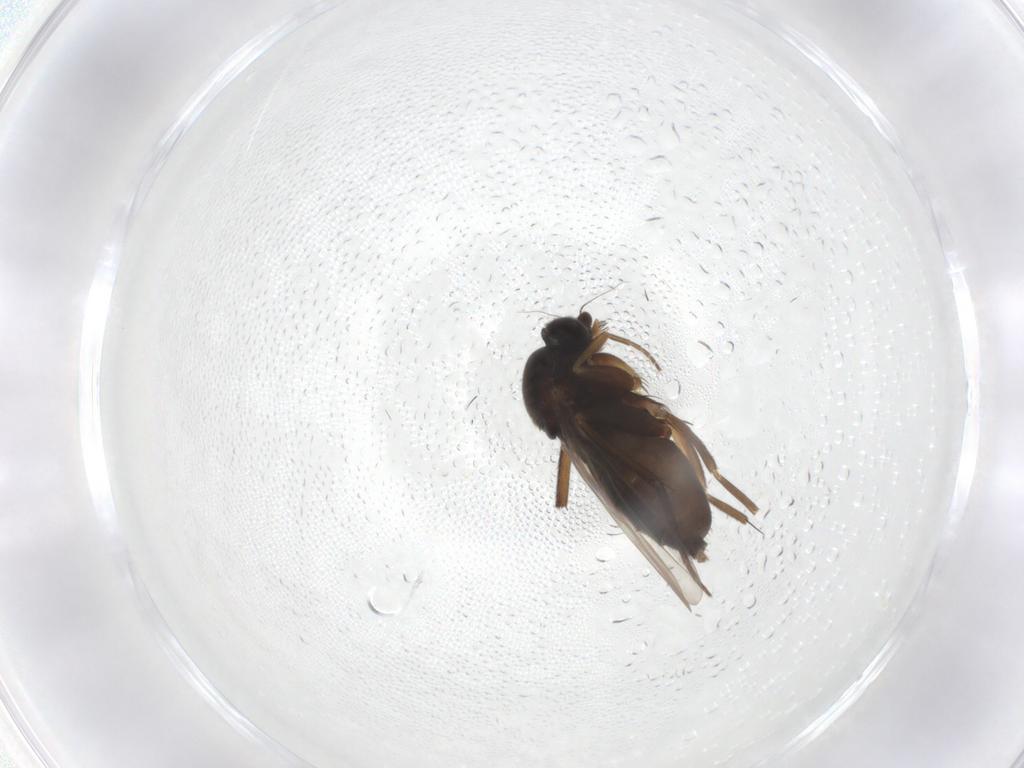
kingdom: Animalia
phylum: Arthropoda
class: Insecta
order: Diptera
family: Phoridae
